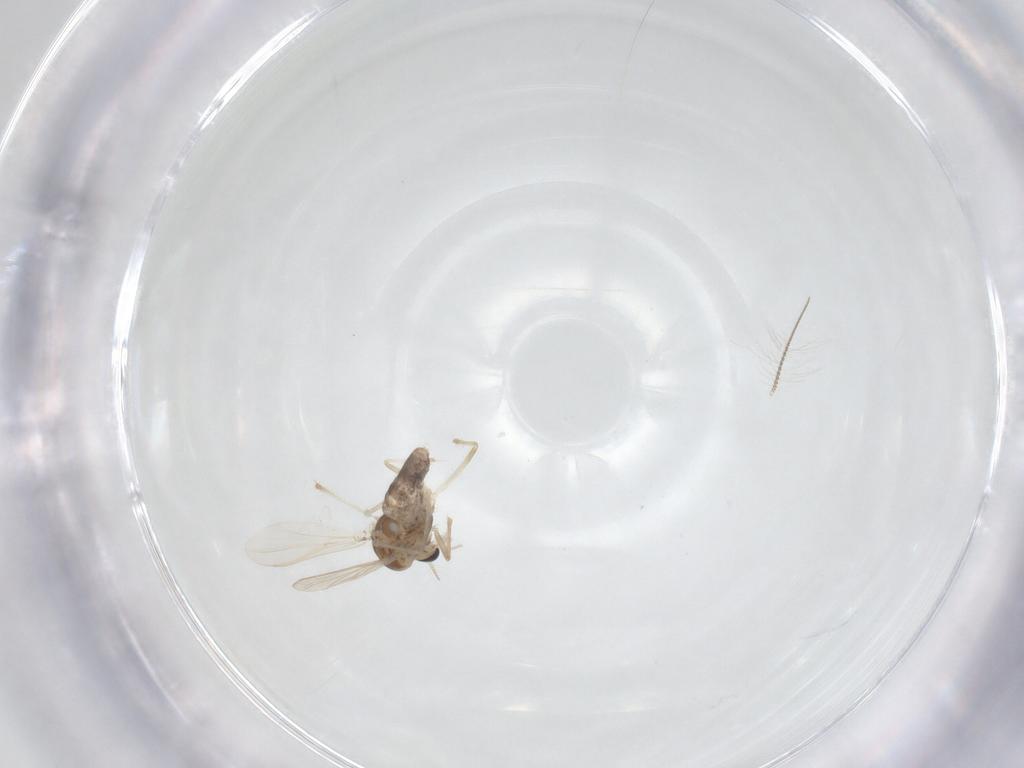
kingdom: Animalia
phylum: Arthropoda
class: Insecta
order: Diptera
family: Chironomidae
